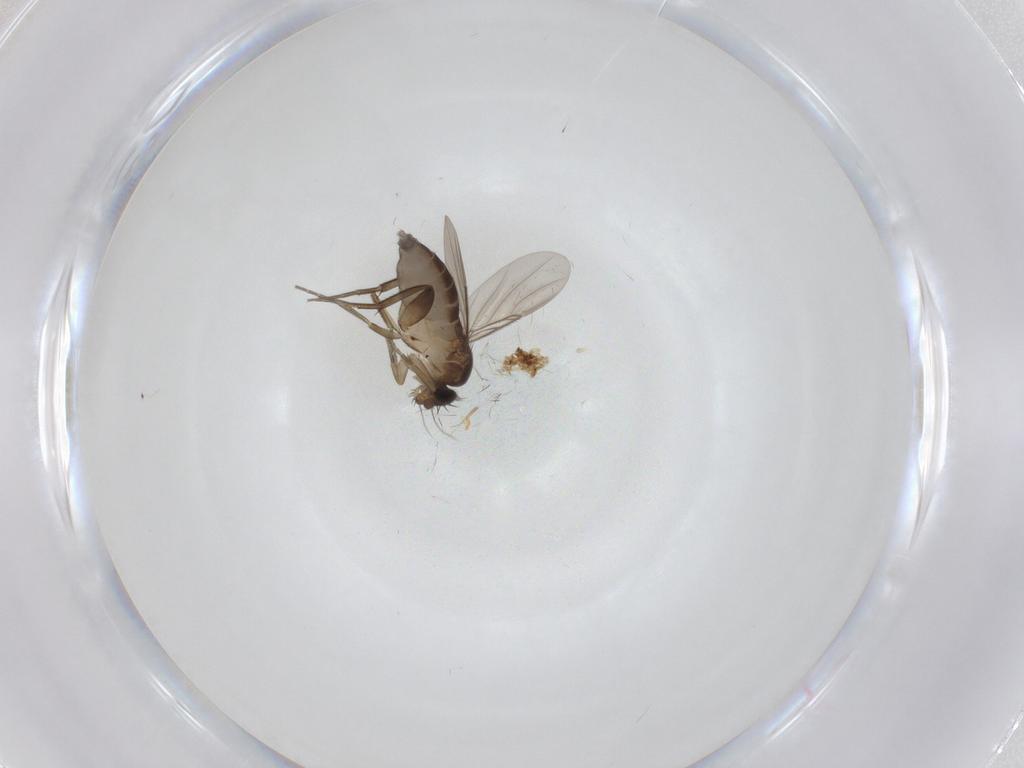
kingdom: Animalia
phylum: Arthropoda
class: Insecta
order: Diptera
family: Phoridae
